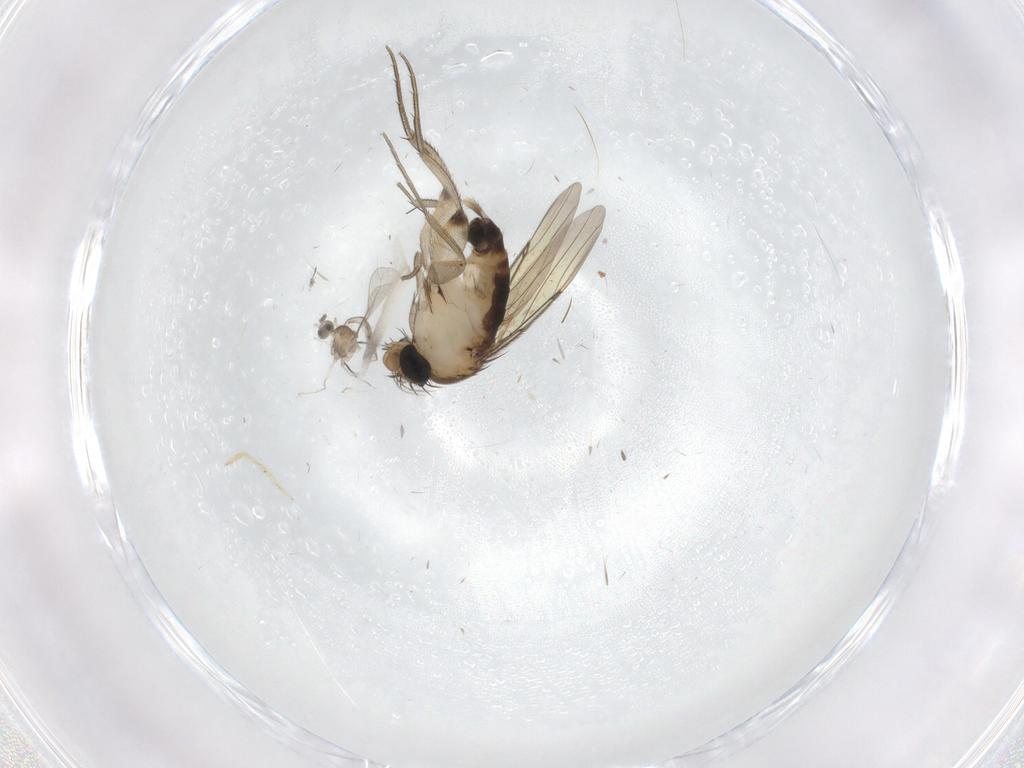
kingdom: Animalia
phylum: Arthropoda
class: Insecta
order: Diptera
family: Phoridae
